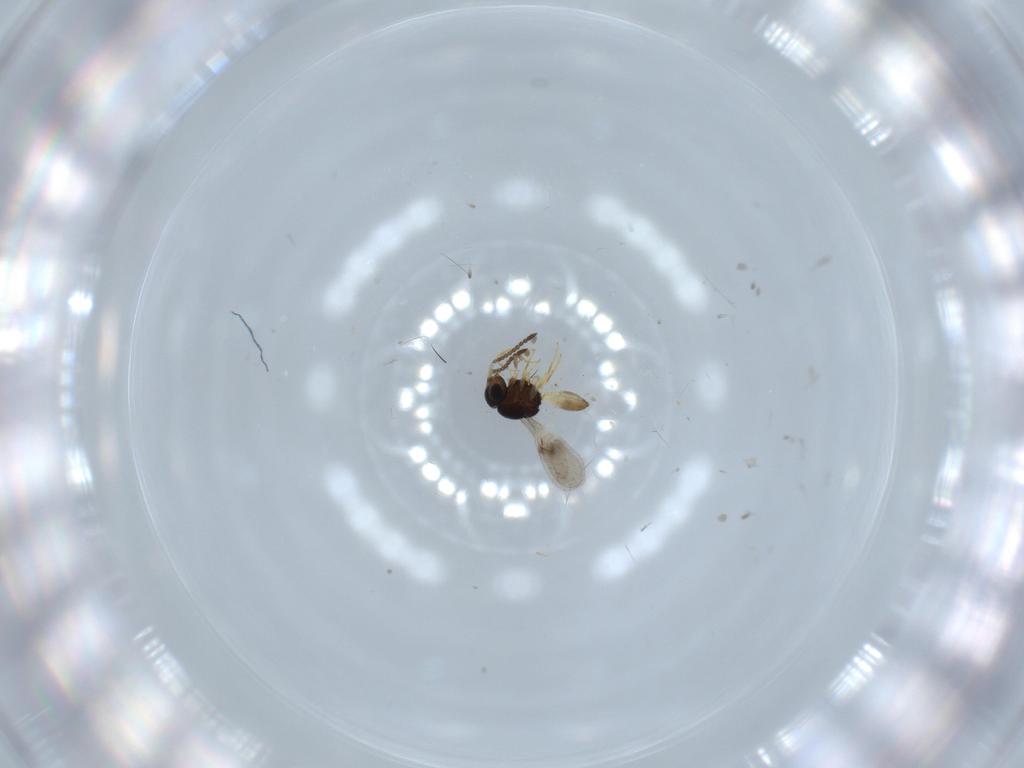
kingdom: Animalia
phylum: Arthropoda
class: Insecta
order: Hymenoptera
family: Scelionidae
